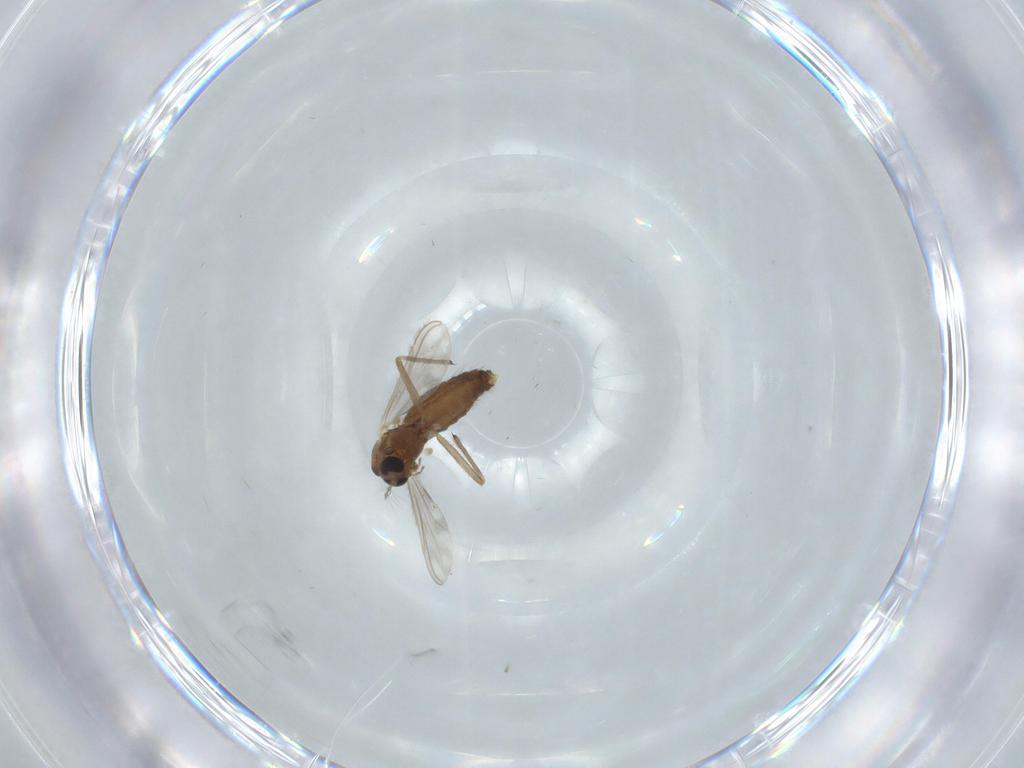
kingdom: Animalia
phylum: Arthropoda
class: Insecta
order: Diptera
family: Chironomidae
